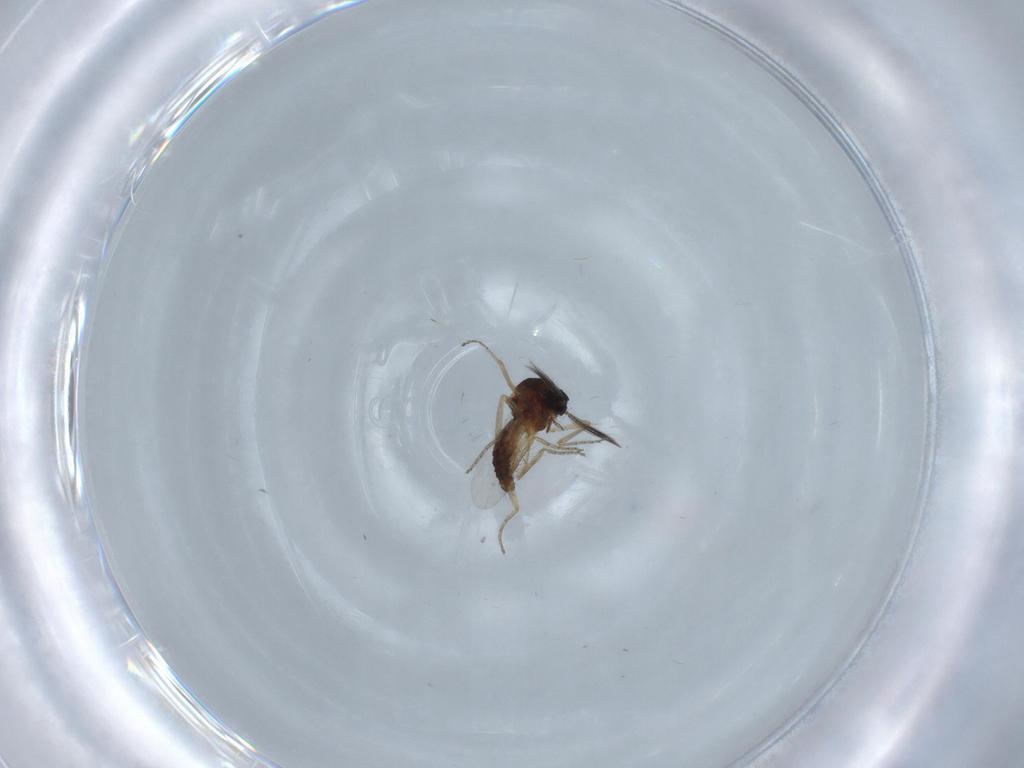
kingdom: Animalia
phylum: Arthropoda
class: Insecta
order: Diptera
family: Ceratopogonidae
